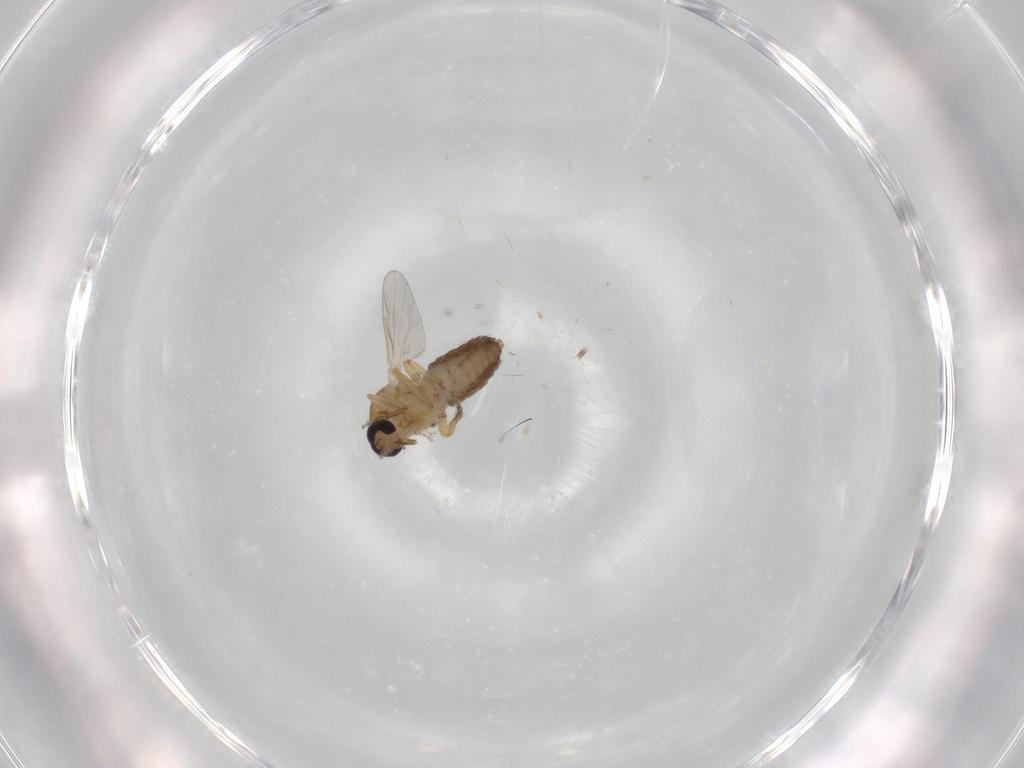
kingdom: Animalia
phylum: Arthropoda
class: Insecta
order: Diptera
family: Ceratopogonidae
